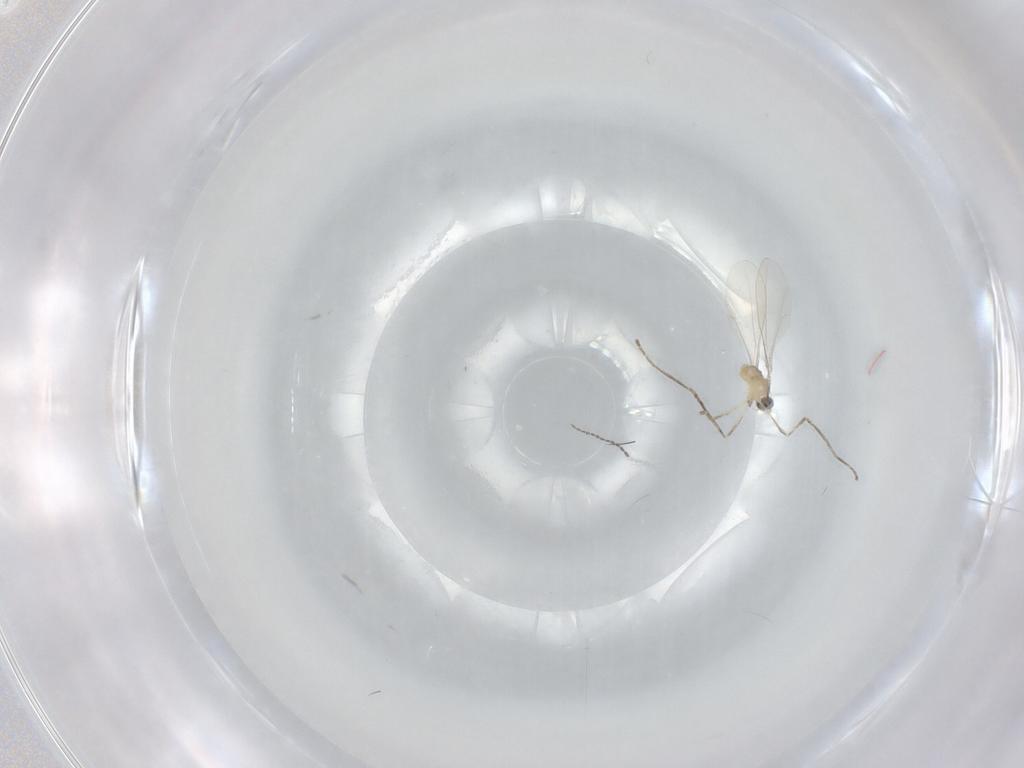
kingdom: Animalia
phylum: Arthropoda
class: Insecta
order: Diptera
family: Cecidomyiidae
